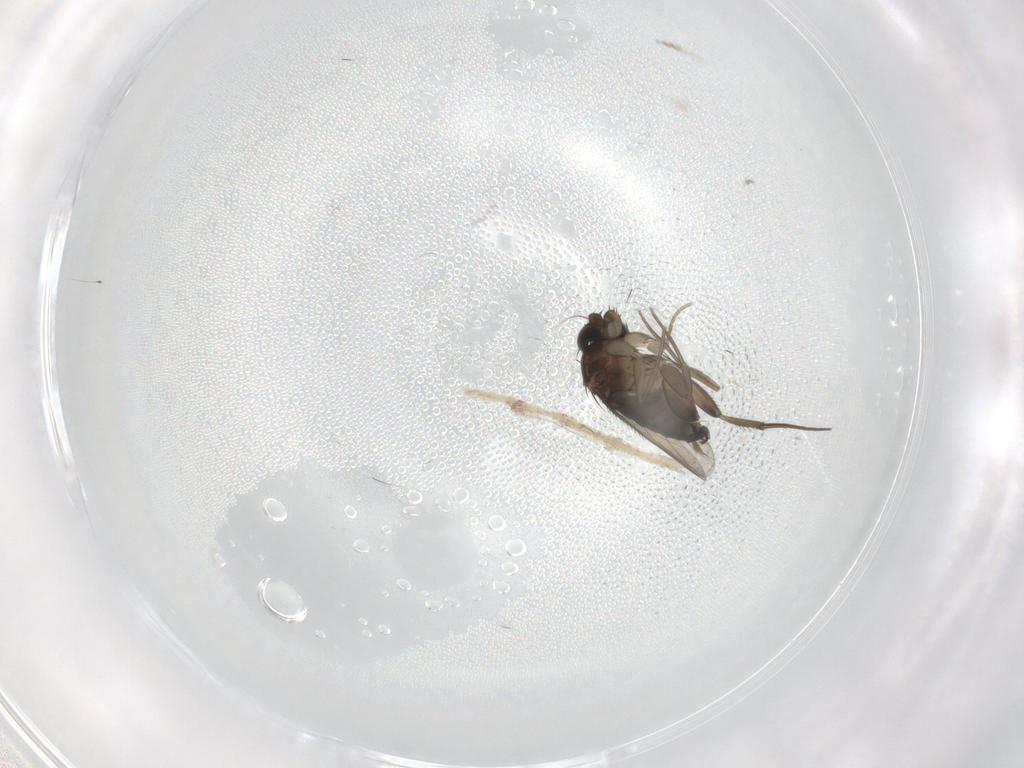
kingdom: Animalia
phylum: Arthropoda
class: Insecta
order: Diptera
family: Phoridae
